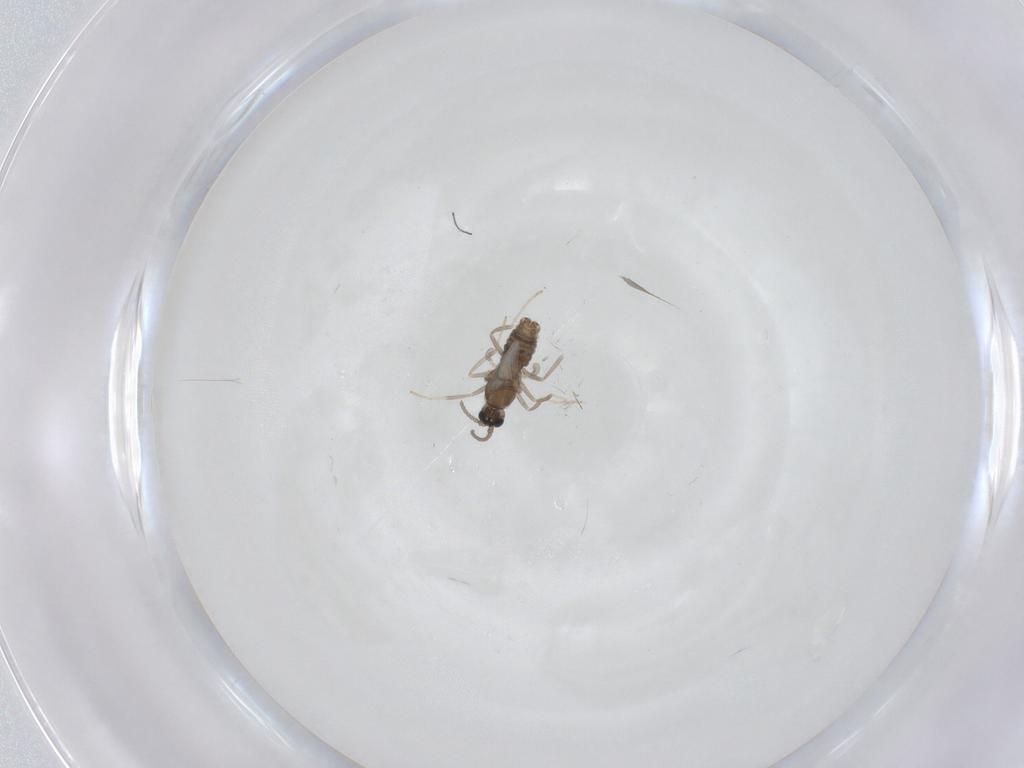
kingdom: Animalia
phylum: Arthropoda
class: Insecta
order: Diptera
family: Cecidomyiidae
